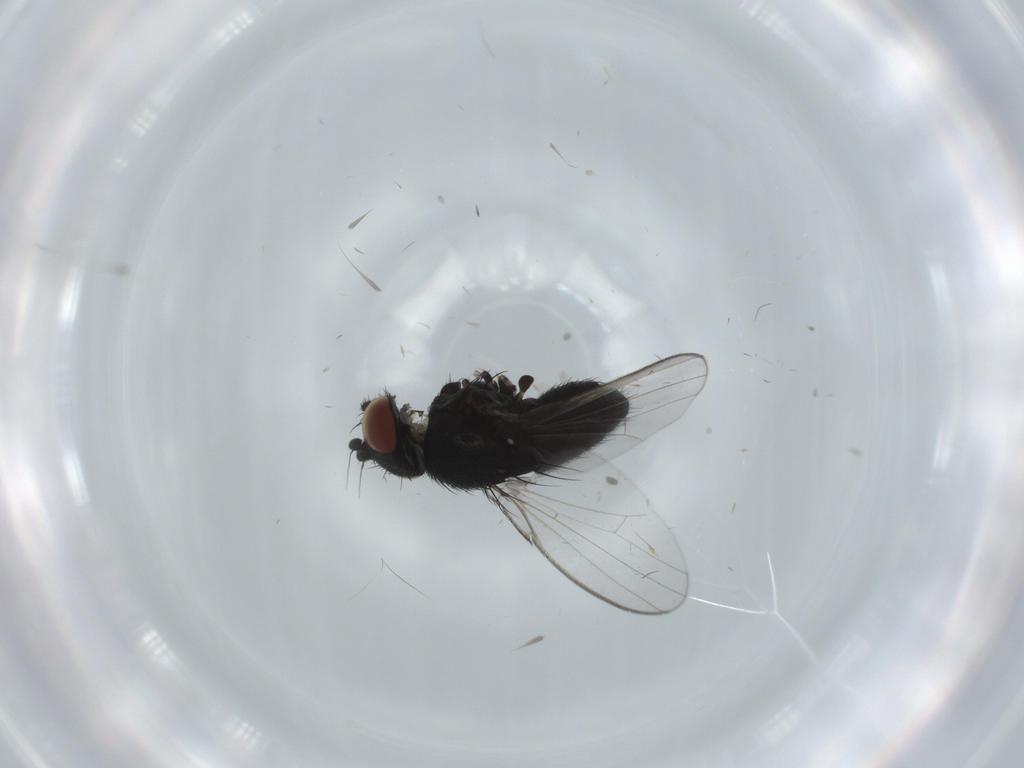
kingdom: Animalia
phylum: Arthropoda
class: Insecta
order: Diptera
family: Milichiidae
